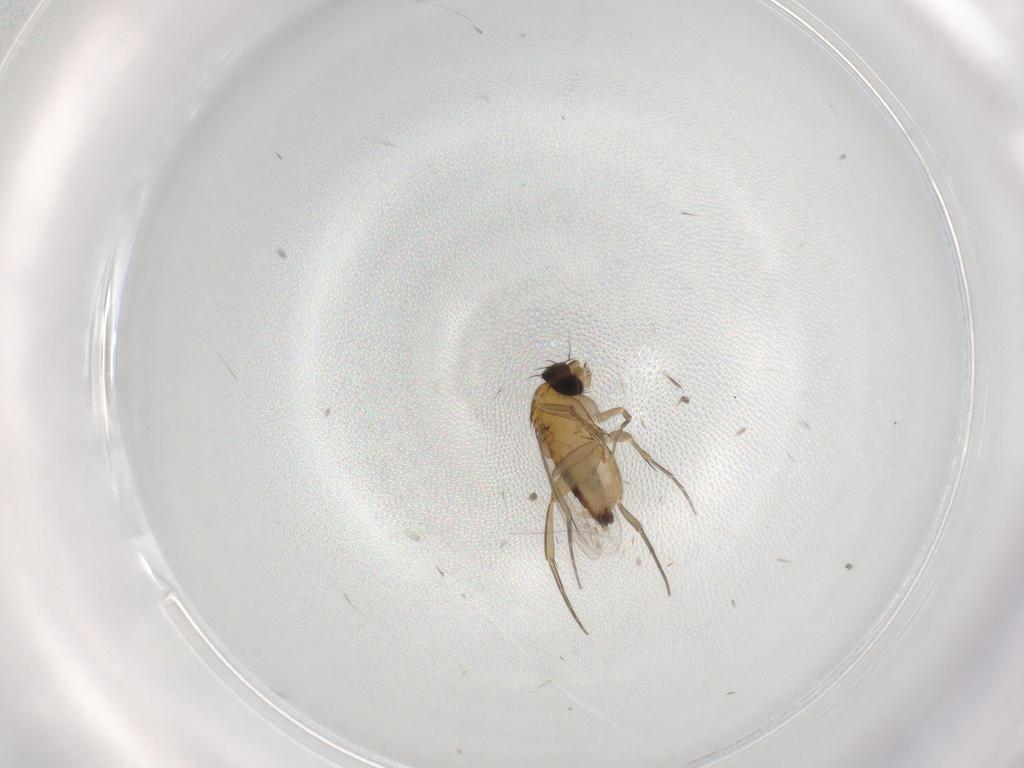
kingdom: Animalia
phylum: Arthropoda
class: Insecta
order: Diptera
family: Phoridae
